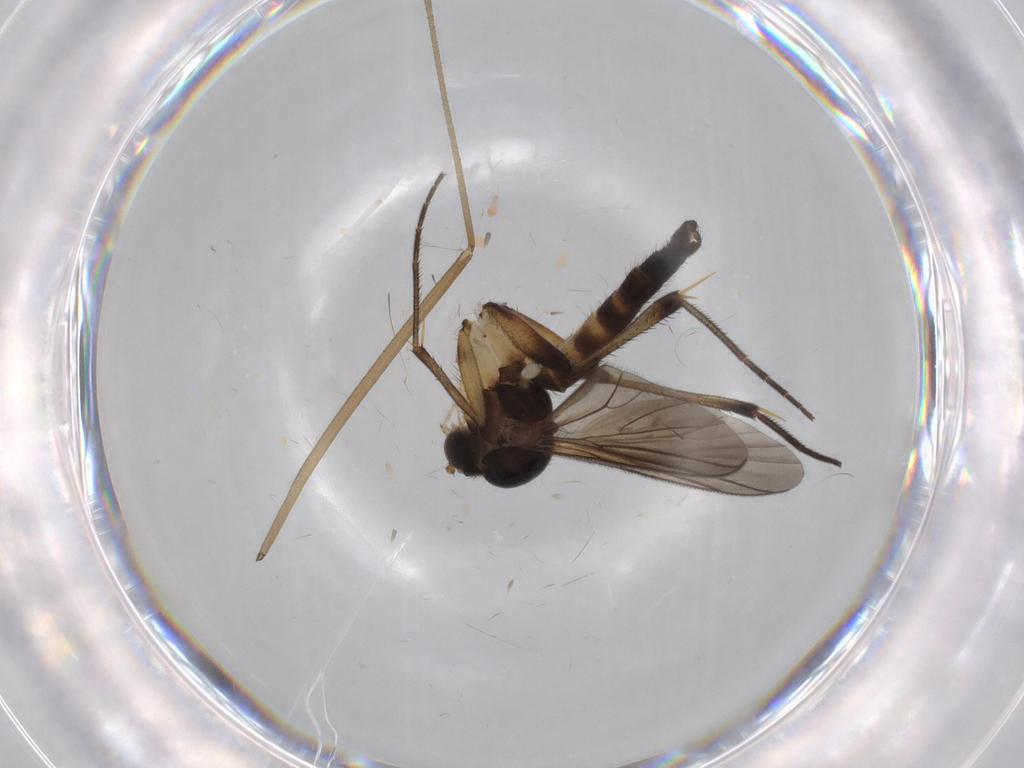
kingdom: Animalia
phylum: Arthropoda
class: Insecta
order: Diptera
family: Mycetophilidae
